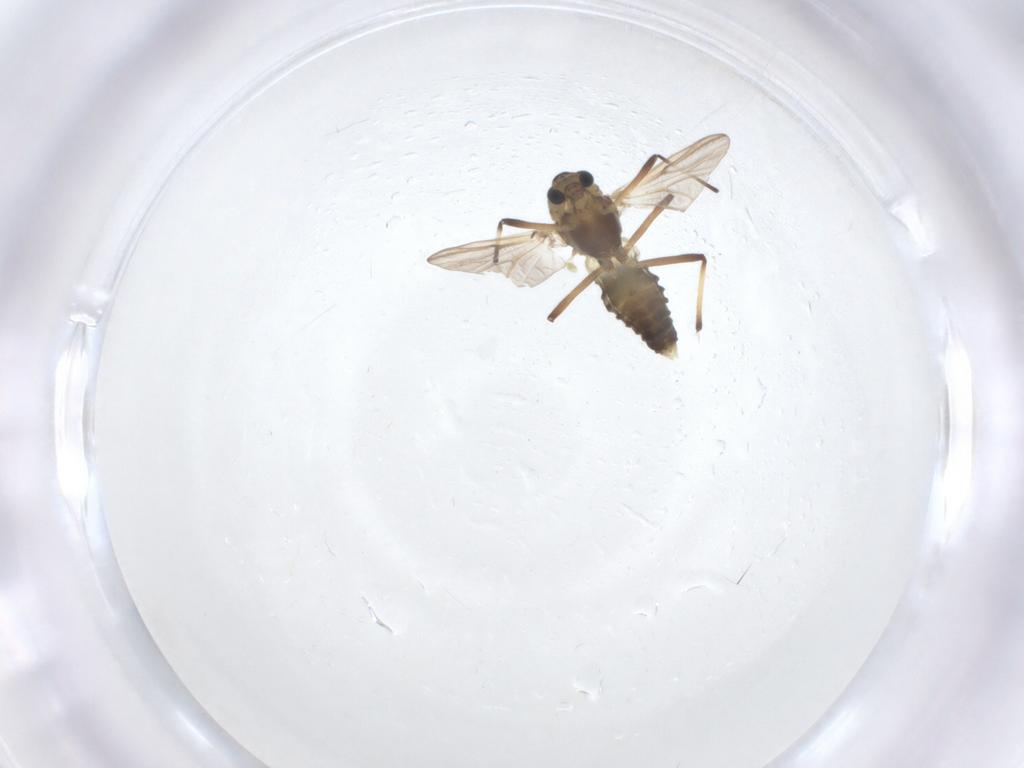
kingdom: Animalia
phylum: Arthropoda
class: Insecta
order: Diptera
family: Chironomidae
